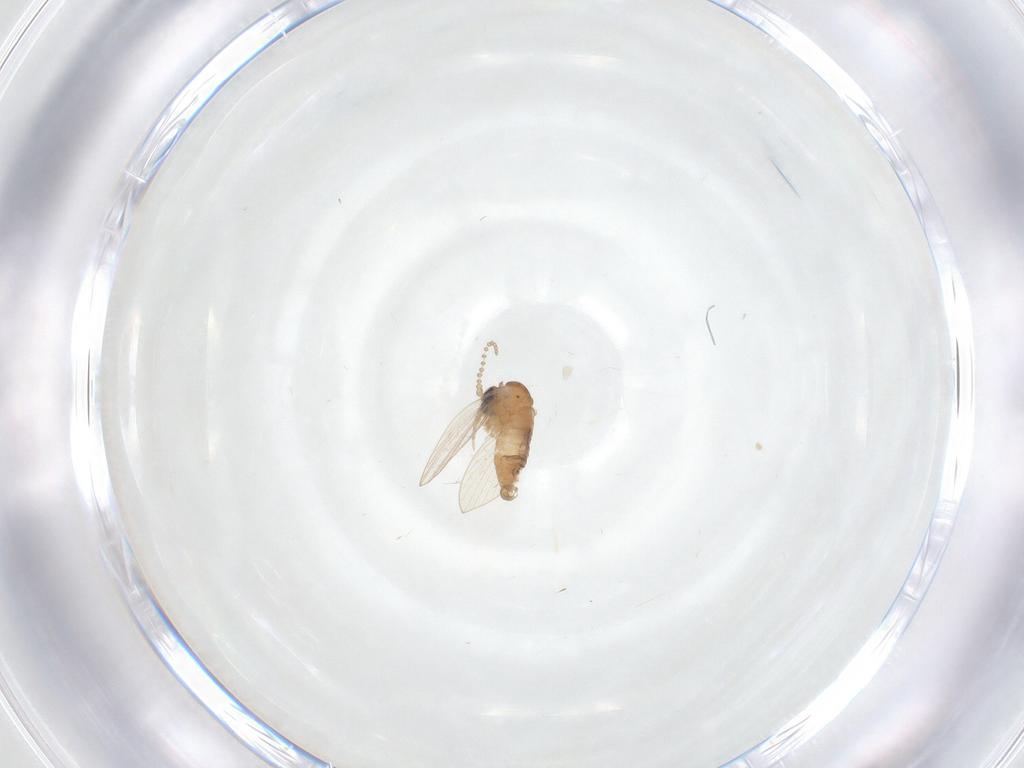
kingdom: Animalia
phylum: Arthropoda
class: Insecta
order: Diptera
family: Psychodidae
